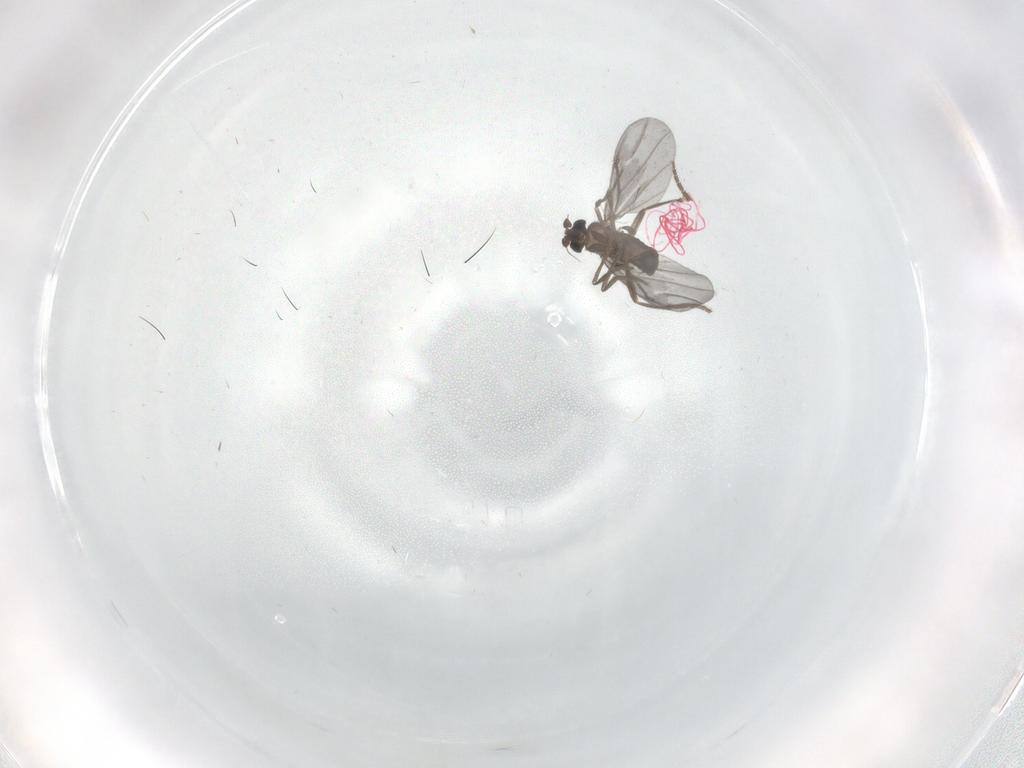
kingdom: Animalia
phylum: Arthropoda
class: Insecta
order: Diptera
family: Phoridae
